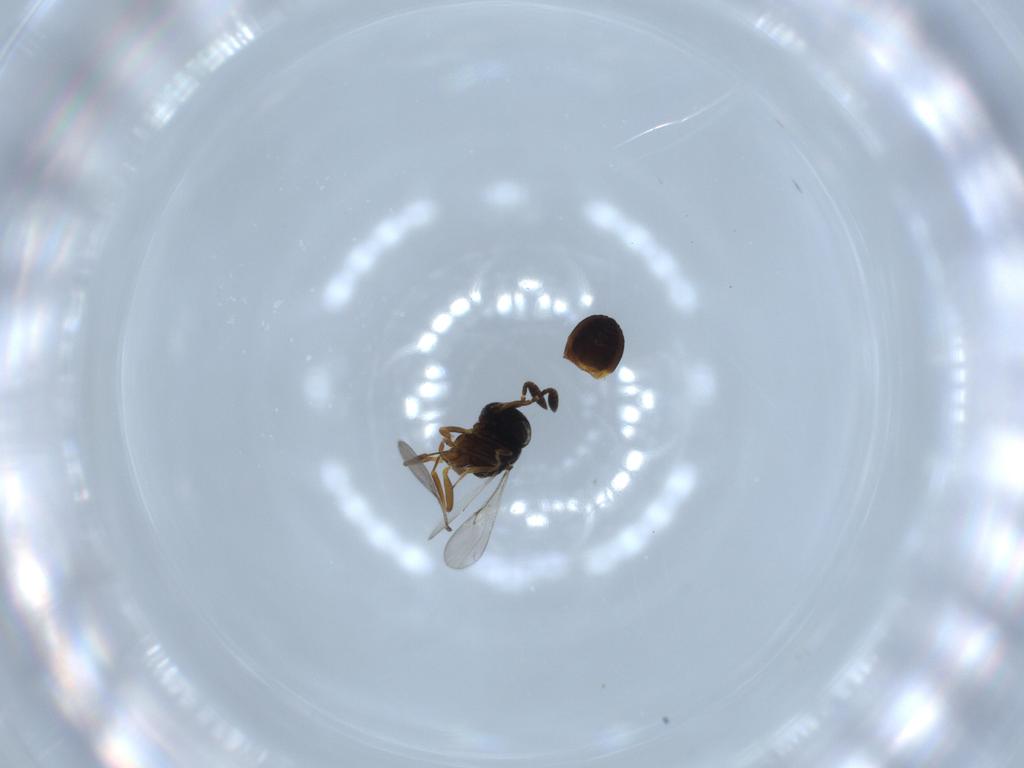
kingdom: Animalia
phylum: Arthropoda
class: Insecta
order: Hymenoptera
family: Scelionidae
